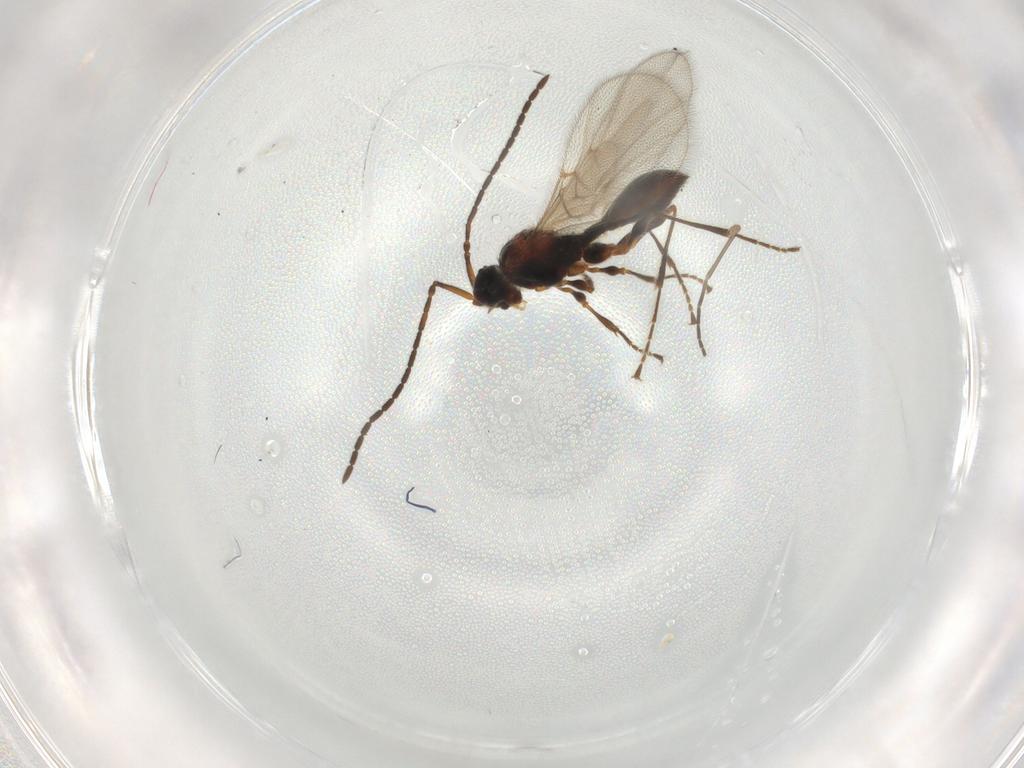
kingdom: Animalia
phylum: Arthropoda
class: Insecta
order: Hymenoptera
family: Diapriidae
